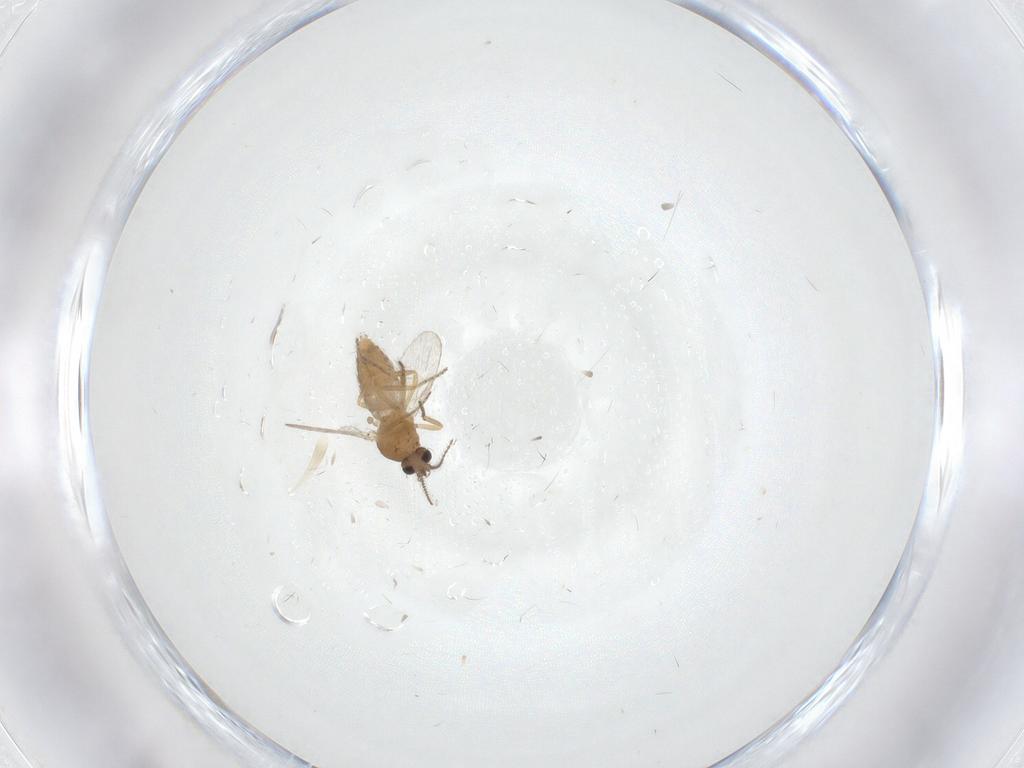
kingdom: Animalia
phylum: Arthropoda
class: Insecta
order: Diptera
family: Ceratopogonidae
